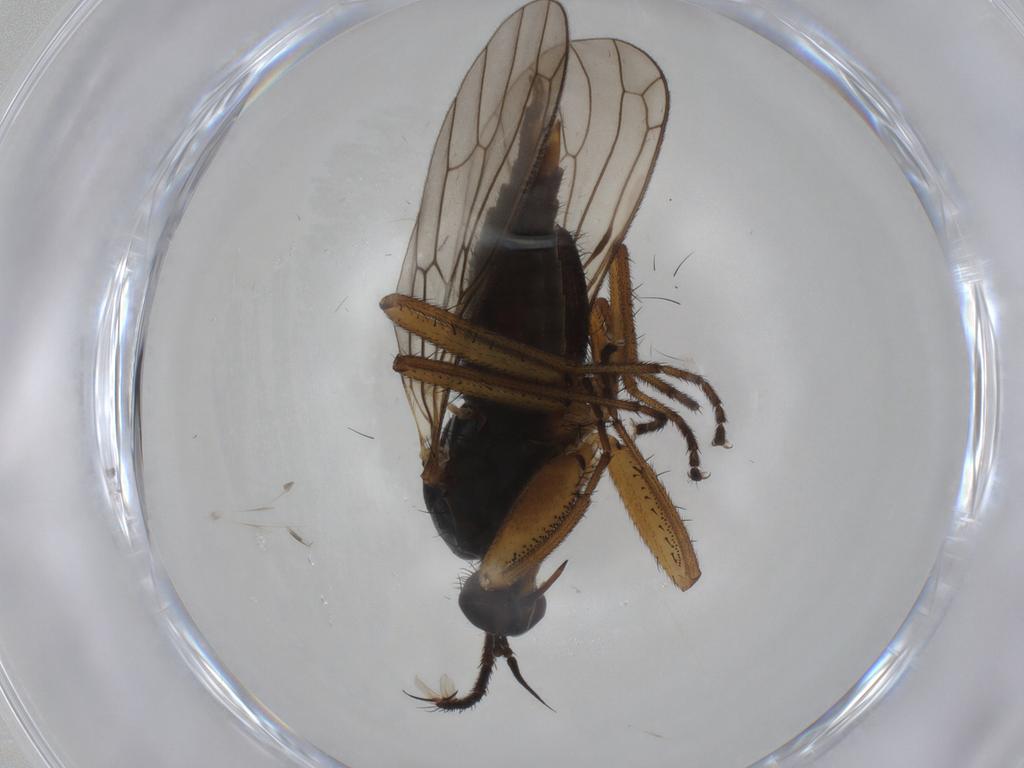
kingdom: Animalia
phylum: Arthropoda
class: Insecta
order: Diptera
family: Chironomidae
